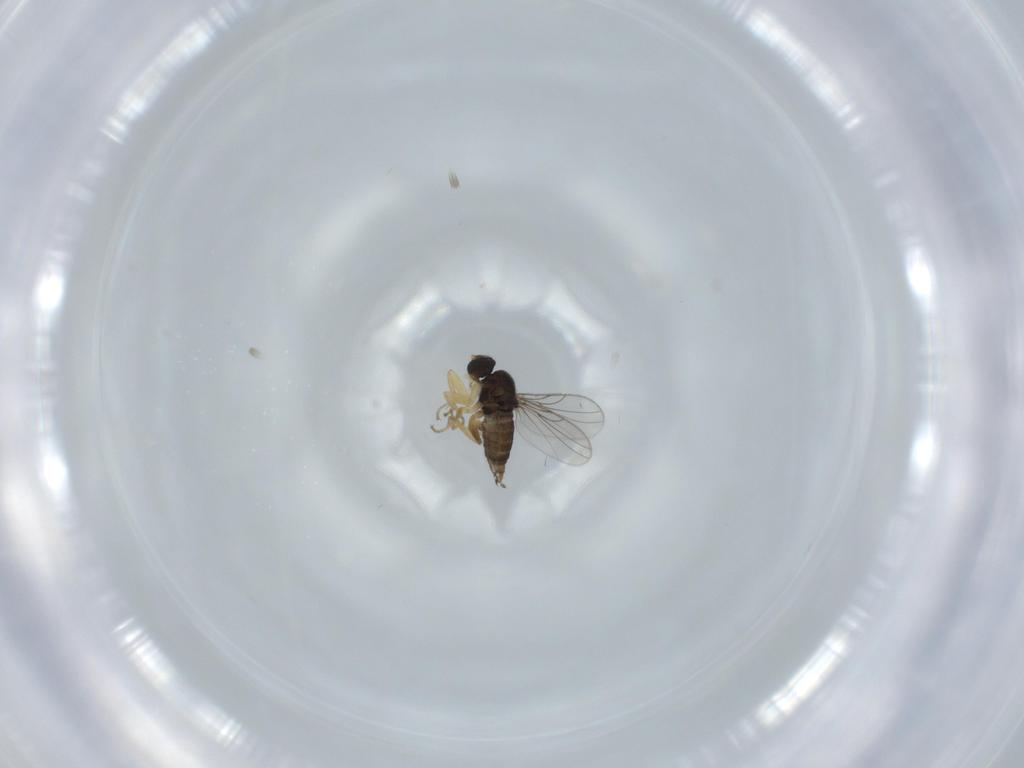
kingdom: Animalia
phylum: Arthropoda
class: Insecta
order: Diptera
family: Hybotidae
